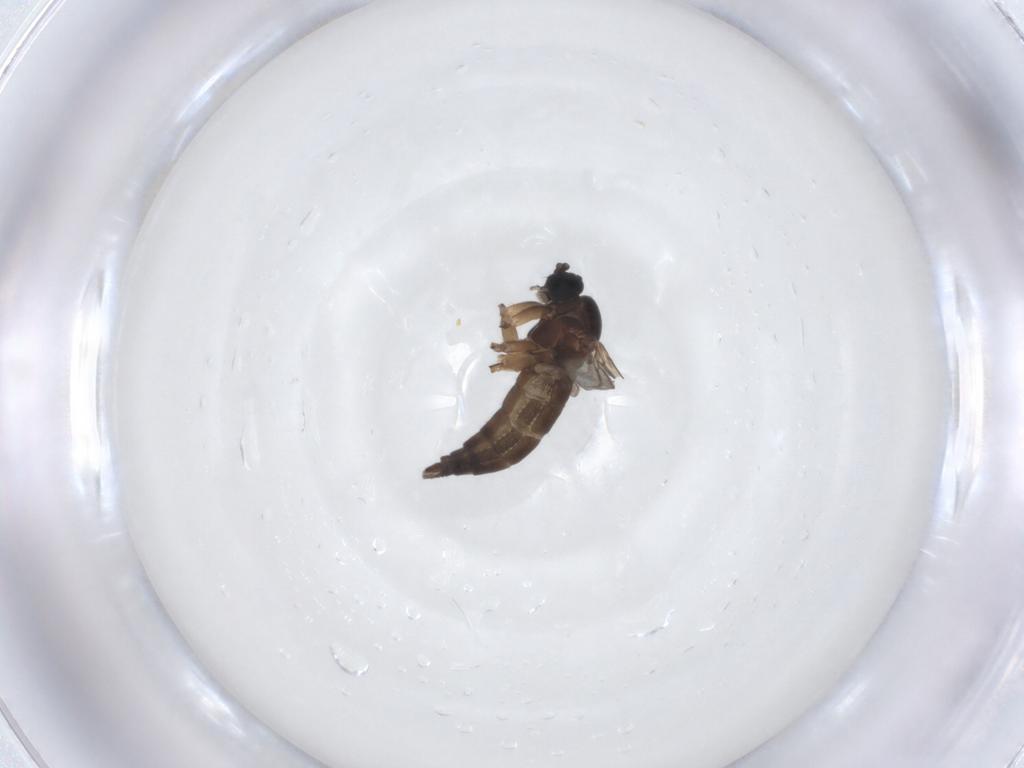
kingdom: Animalia
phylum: Arthropoda
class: Insecta
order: Diptera
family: Sciaridae
